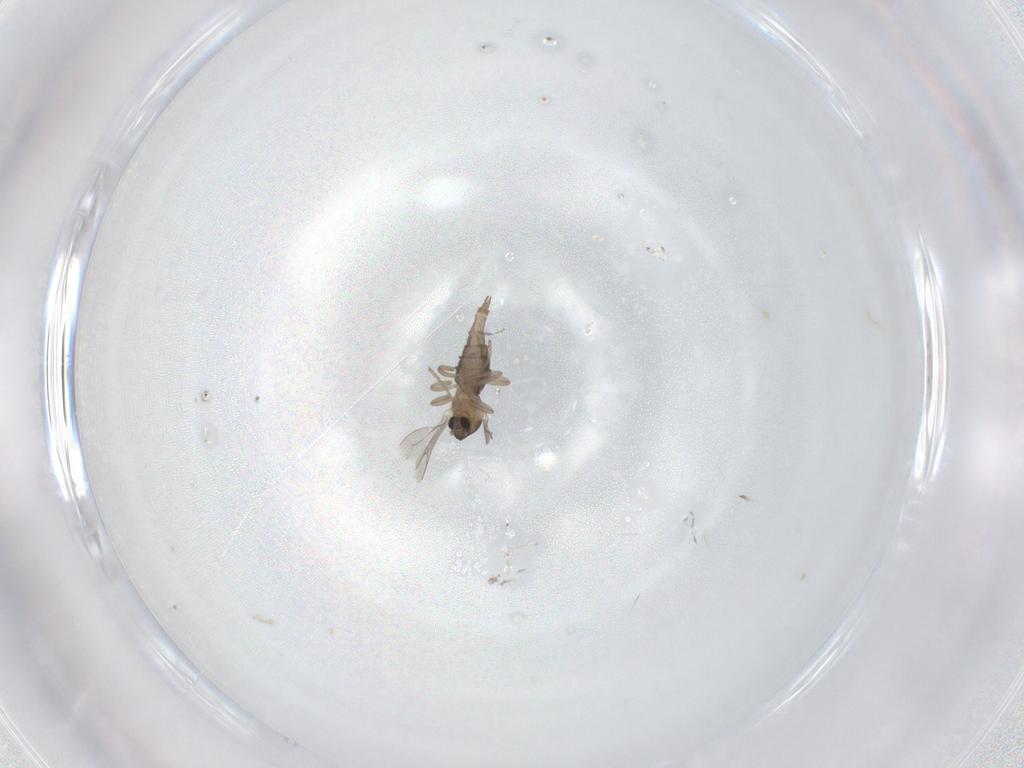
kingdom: Animalia
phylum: Arthropoda
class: Insecta
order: Diptera
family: Cecidomyiidae
